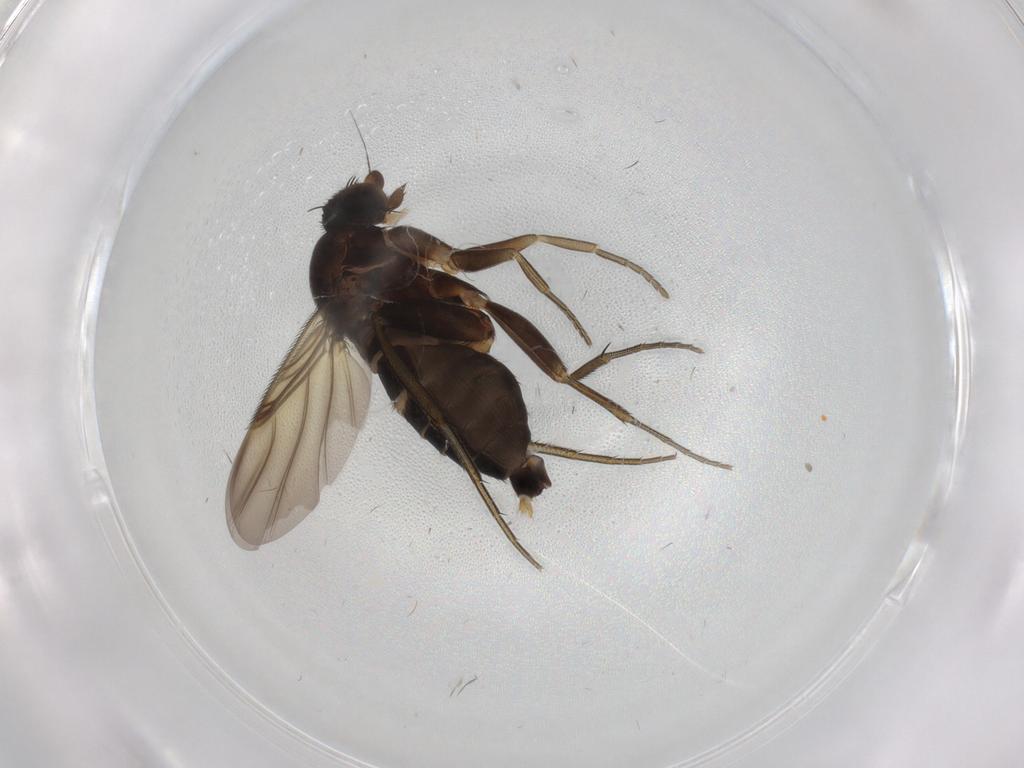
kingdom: Animalia
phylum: Arthropoda
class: Insecta
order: Diptera
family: Phoridae
